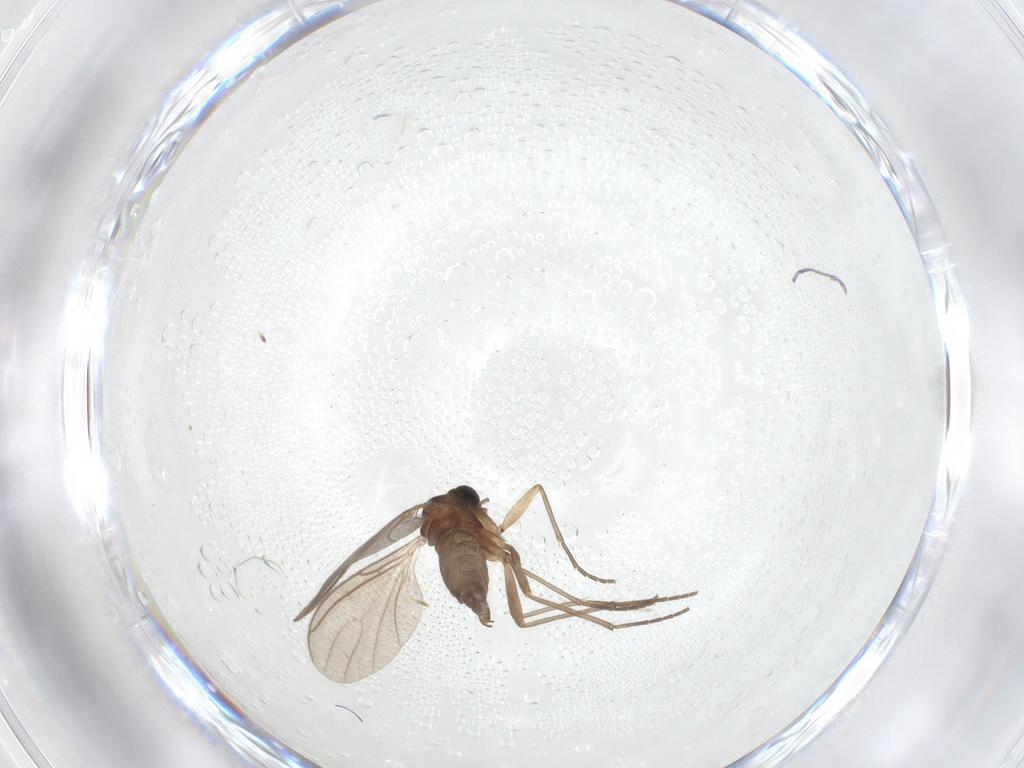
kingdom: Animalia
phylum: Arthropoda
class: Insecta
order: Diptera
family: Sciaridae
